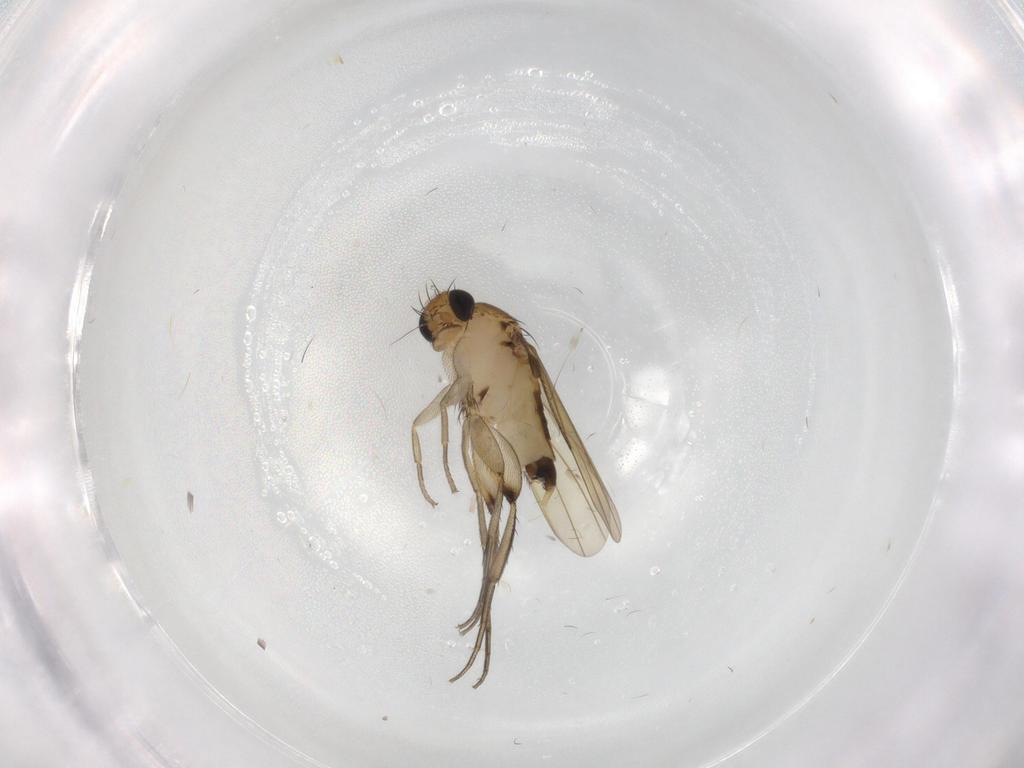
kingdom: Animalia
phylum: Arthropoda
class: Insecta
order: Diptera
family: Phoridae
